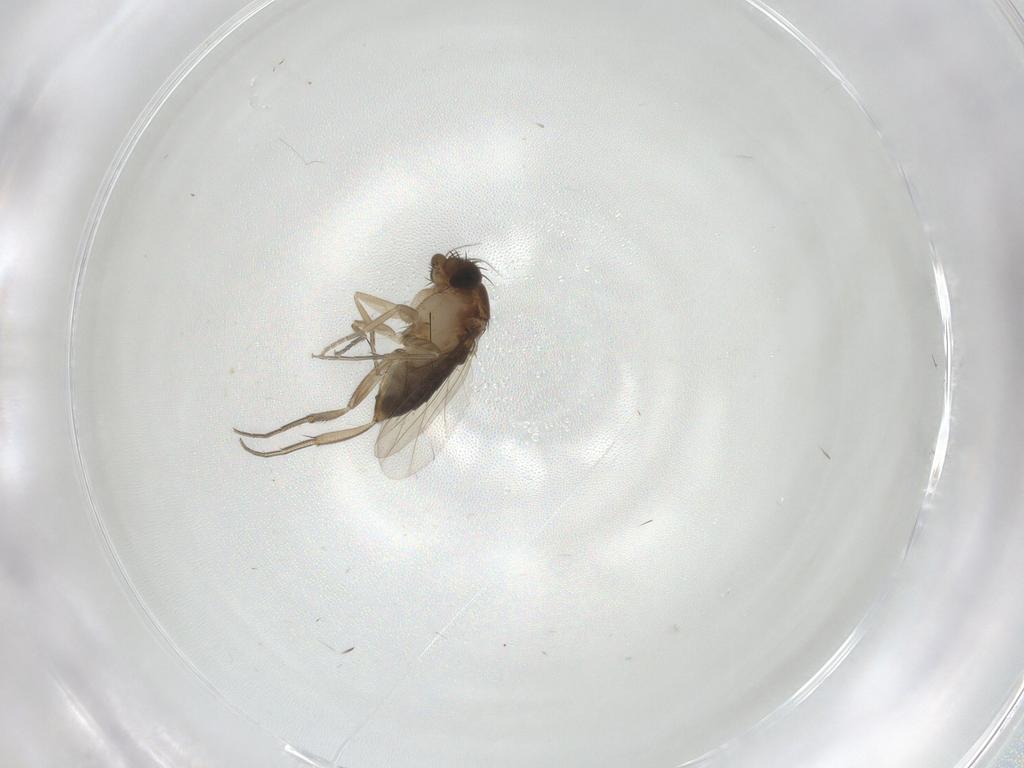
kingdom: Animalia
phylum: Arthropoda
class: Insecta
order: Diptera
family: Phoridae
